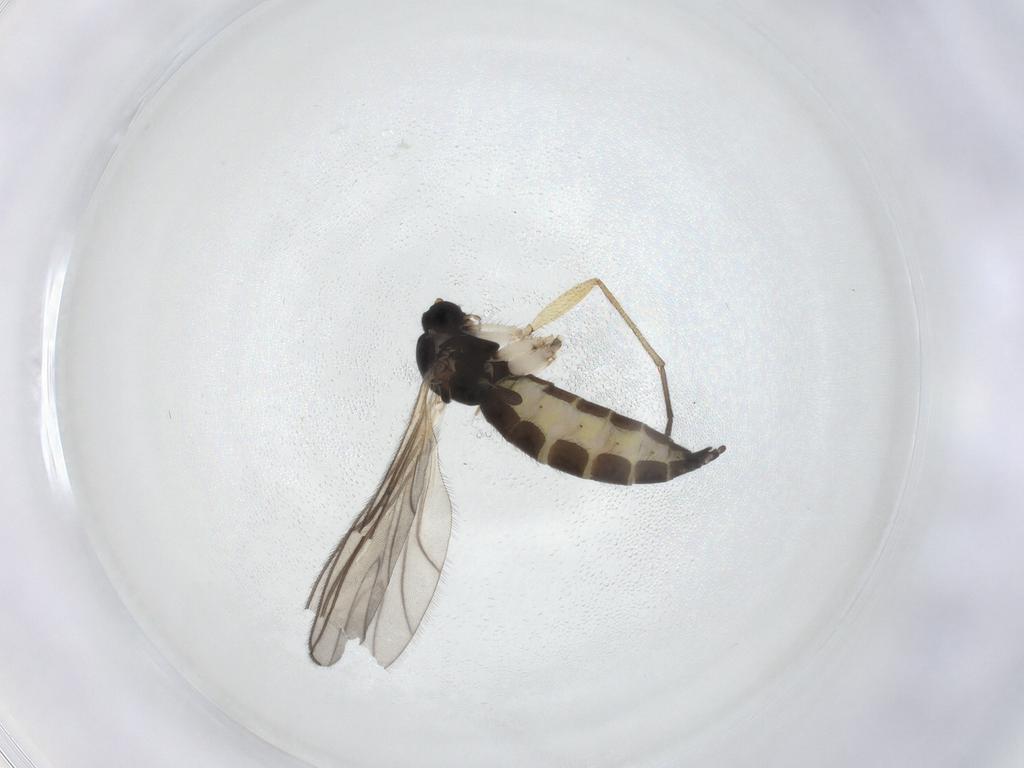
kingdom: Animalia
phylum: Arthropoda
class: Insecta
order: Diptera
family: Sciaridae
